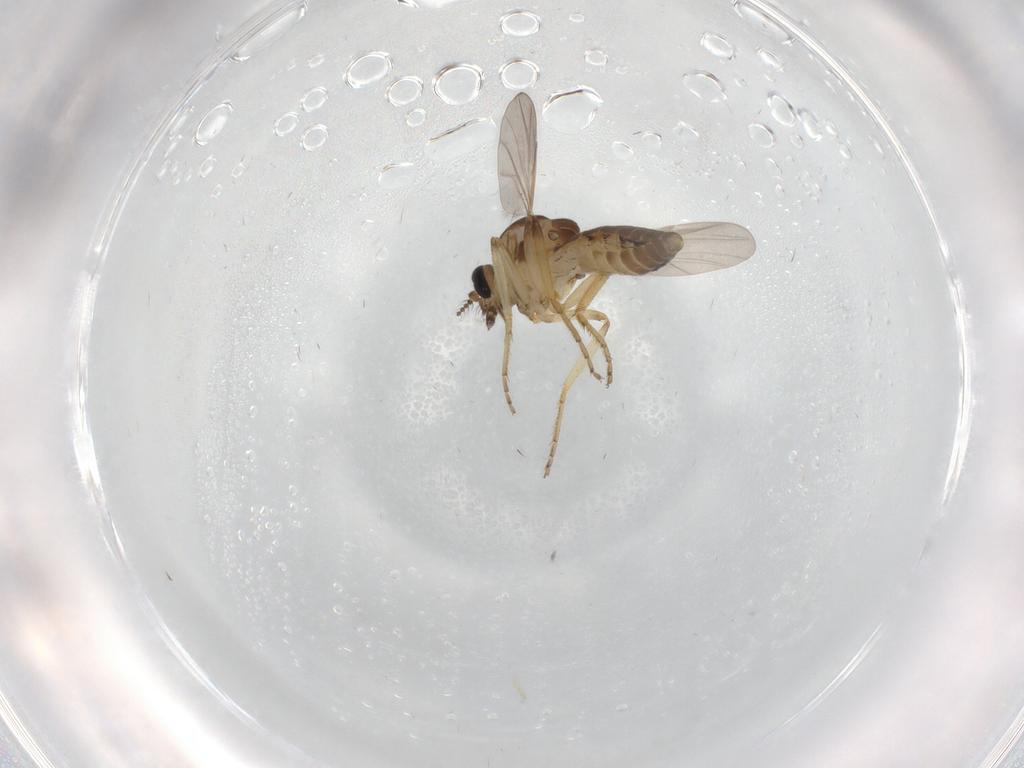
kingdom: Animalia
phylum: Arthropoda
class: Insecta
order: Diptera
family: Ceratopogonidae
